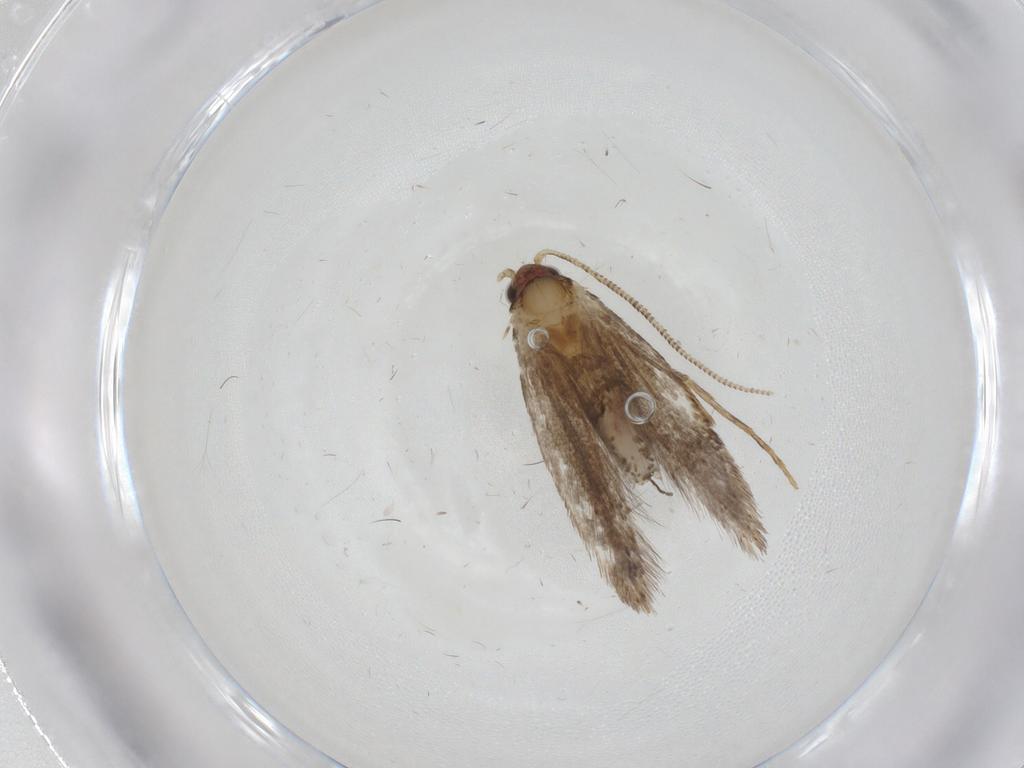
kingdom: Animalia
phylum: Arthropoda
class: Insecta
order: Lepidoptera
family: Tineidae
